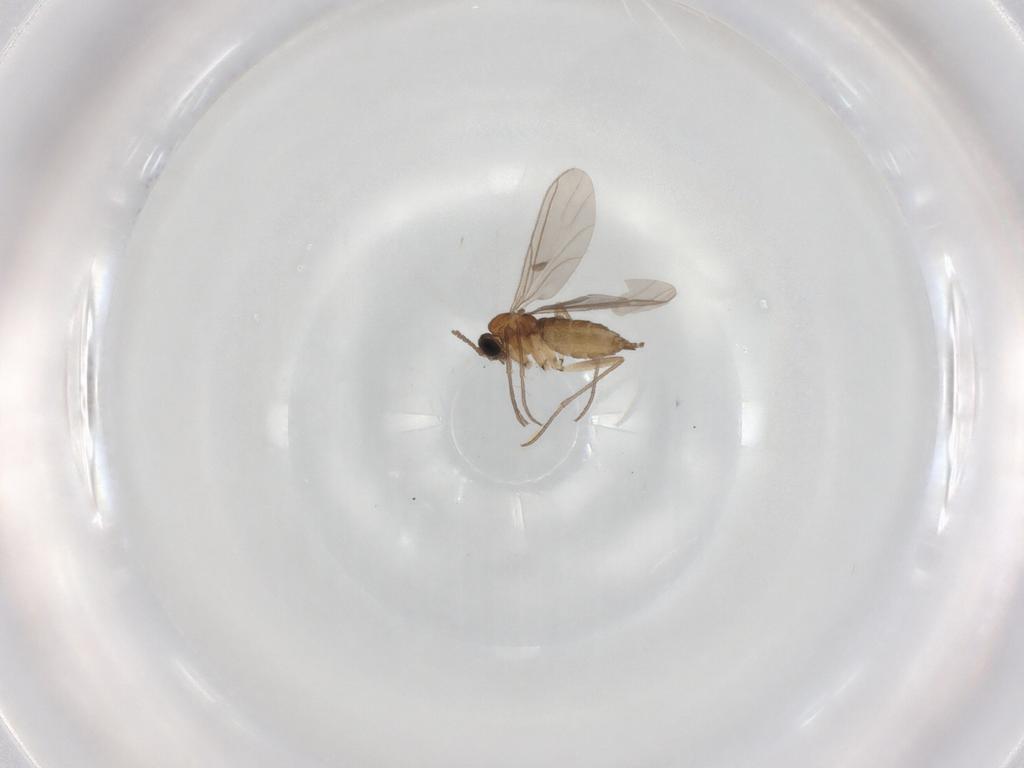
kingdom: Animalia
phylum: Arthropoda
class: Insecta
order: Diptera
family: Sciaridae
